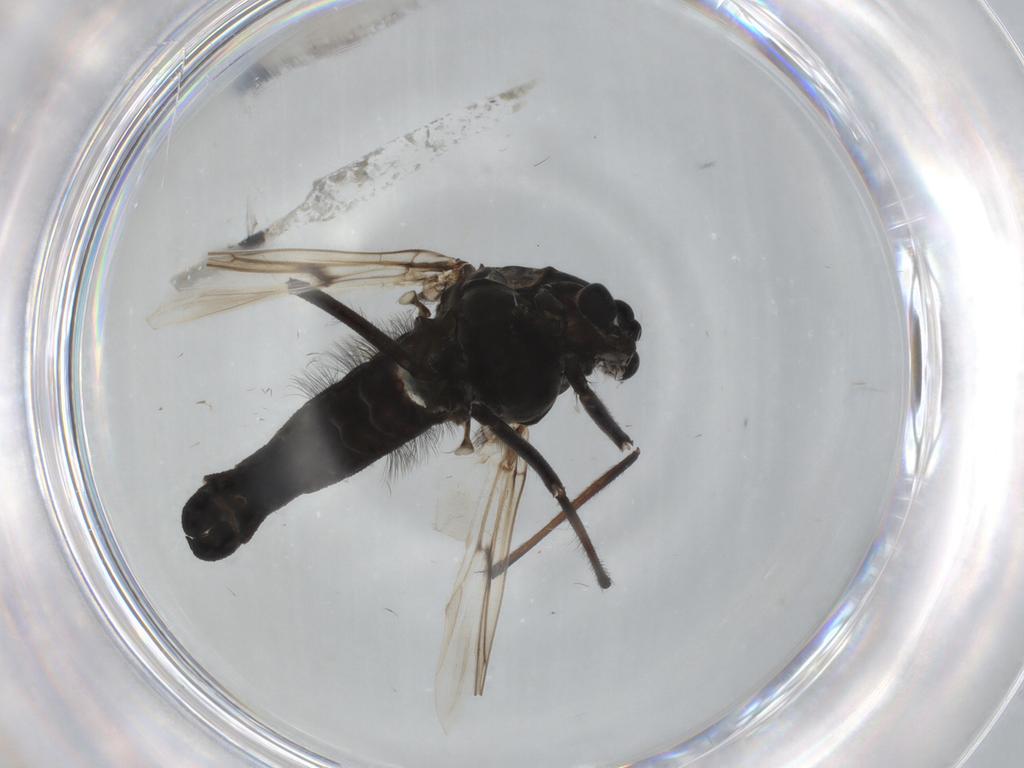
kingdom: Animalia
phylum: Arthropoda
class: Insecta
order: Diptera
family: Chironomidae
